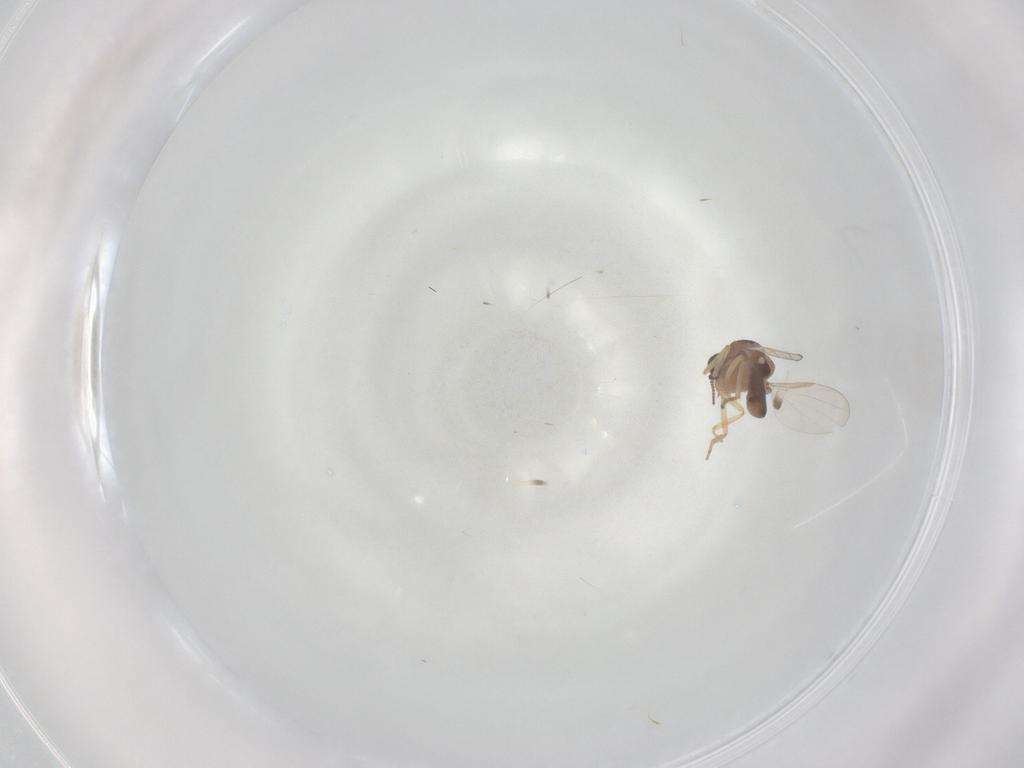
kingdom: Animalia
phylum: Arthropoda
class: Insecta
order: Diptera
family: Ceratopogonidae
